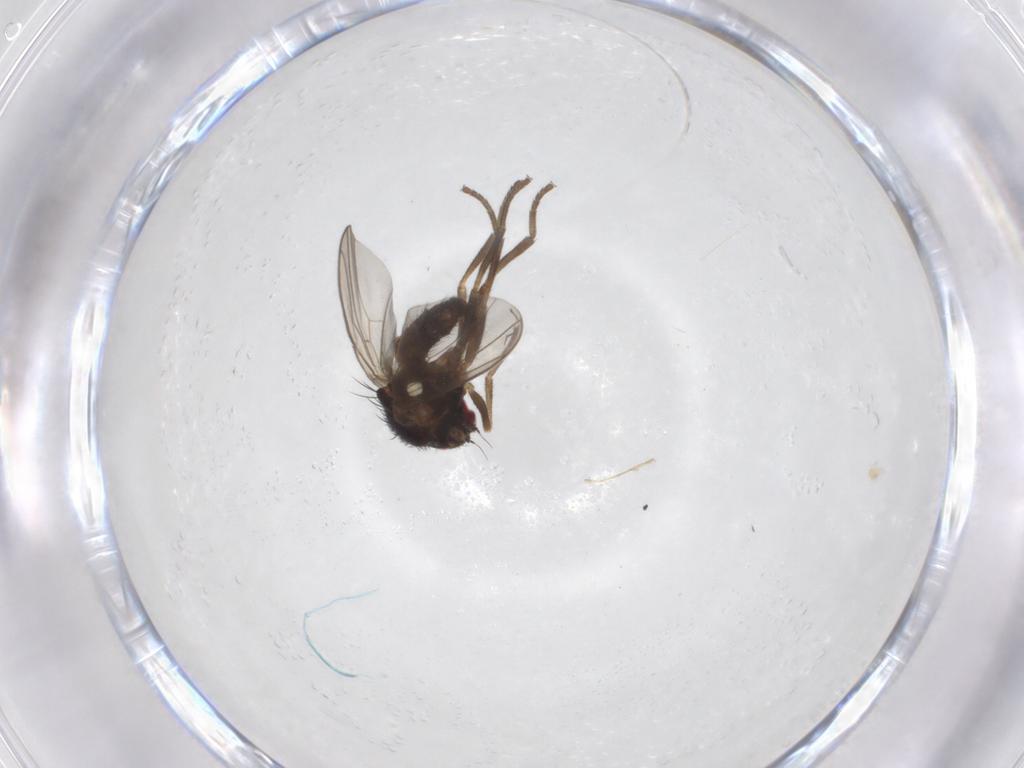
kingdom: Animalia
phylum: Arthropoda
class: Insecta
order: Diptera
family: Agromyzidae
